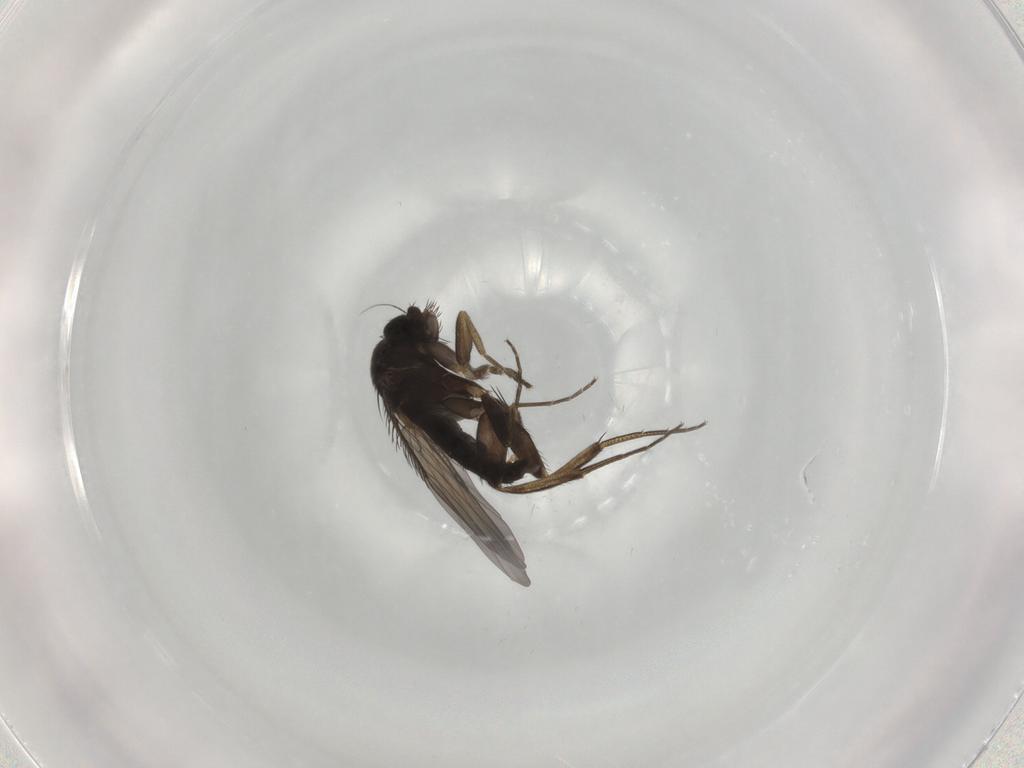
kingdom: Animalia
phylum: Arthropoda
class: Insecta
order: Diptera
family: Phoridae
